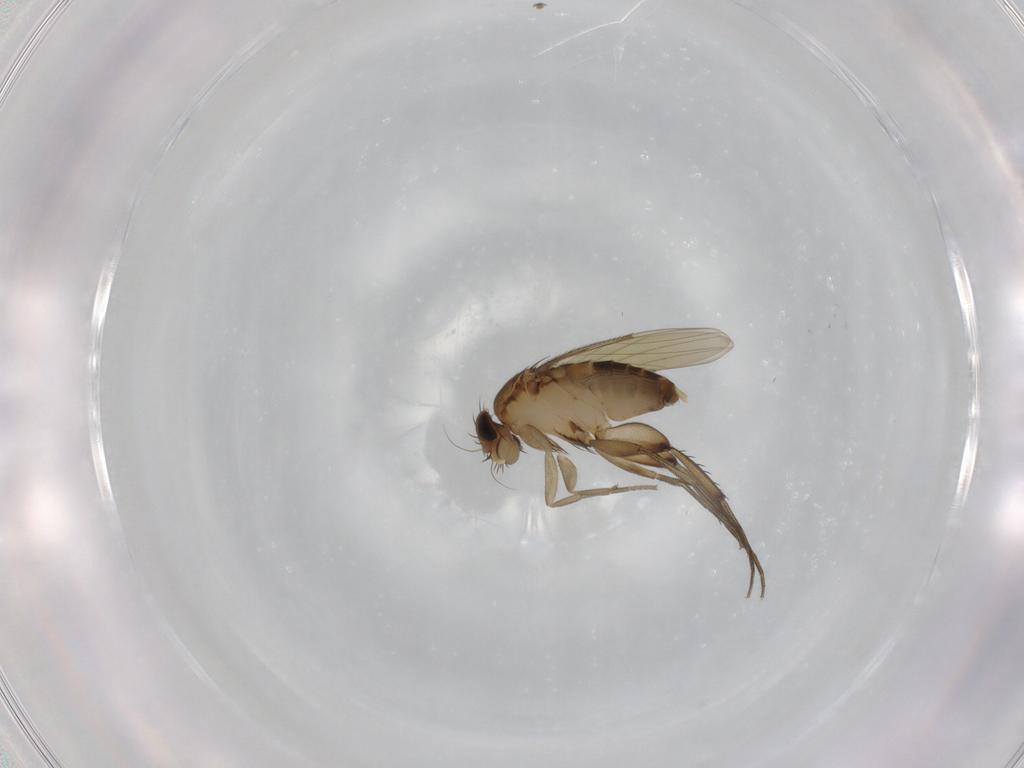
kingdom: Animalia
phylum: Arthropoda
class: Insecta
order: Diptera
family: Phoridae
